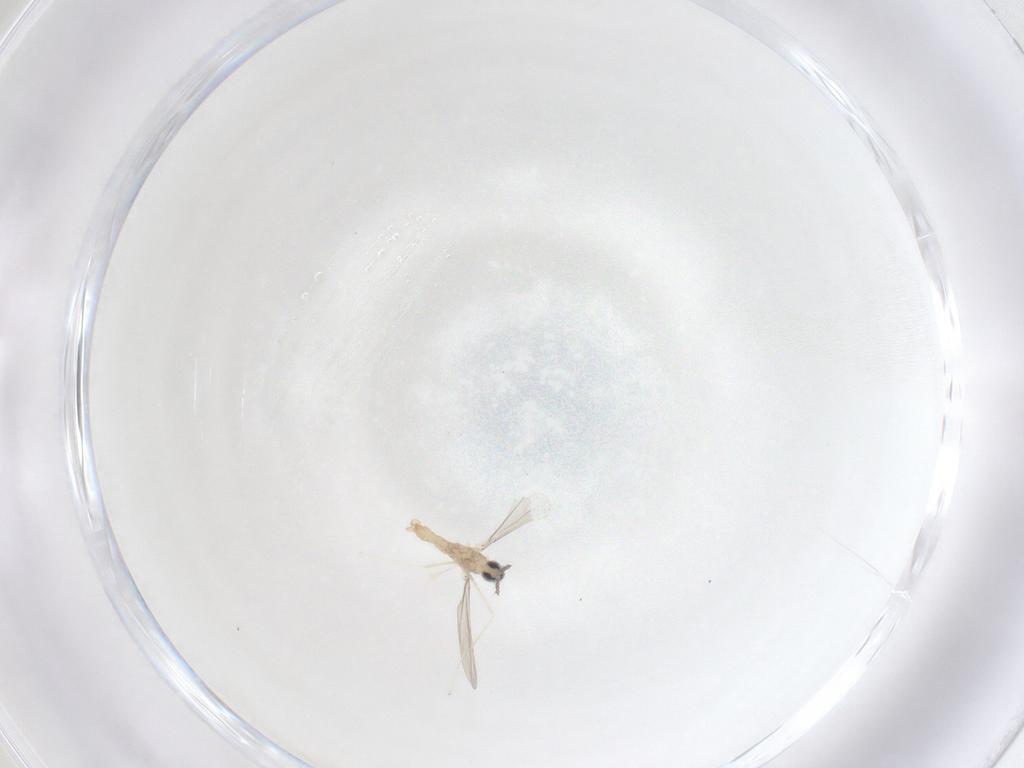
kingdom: Animalia
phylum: Arthropoda
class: Insecta
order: Diptera
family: Cecidomyiidae
